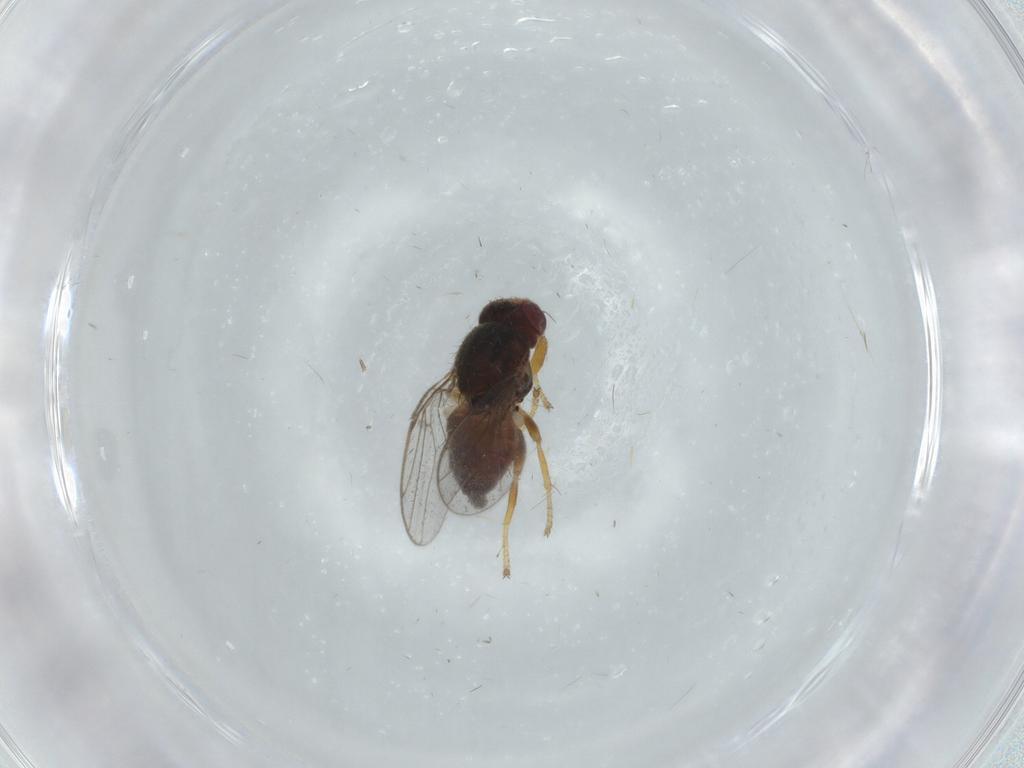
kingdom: Animalia
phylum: Arthropoda
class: Insecta
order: Diptera
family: Chloropidae
